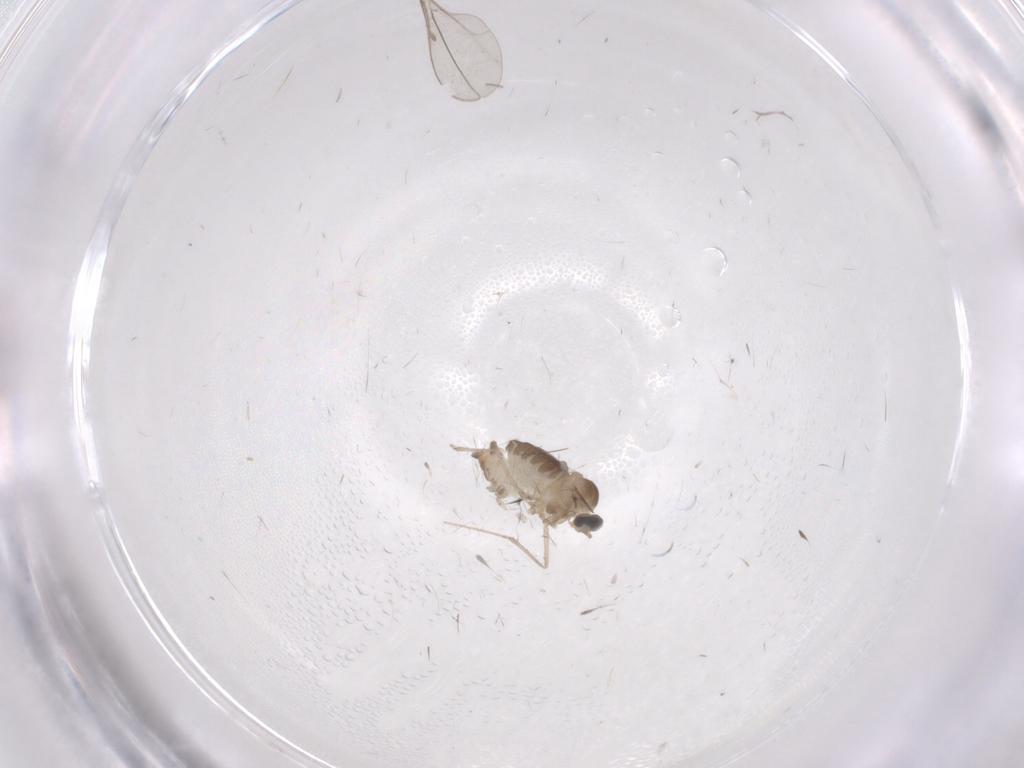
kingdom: Animalia
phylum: Arthropoda
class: Insecta
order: Diptera
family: Cecidomyiidae
